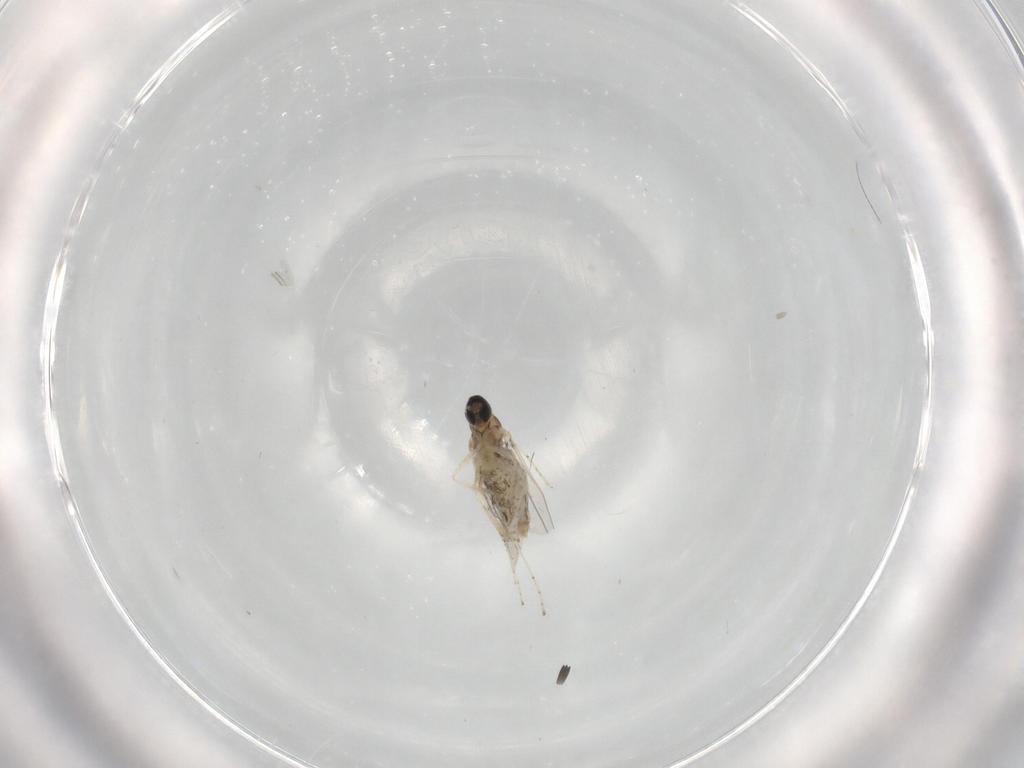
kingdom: Animalia
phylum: Arthropoda
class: Insecta
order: Diptera
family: Cecidomyiidae
